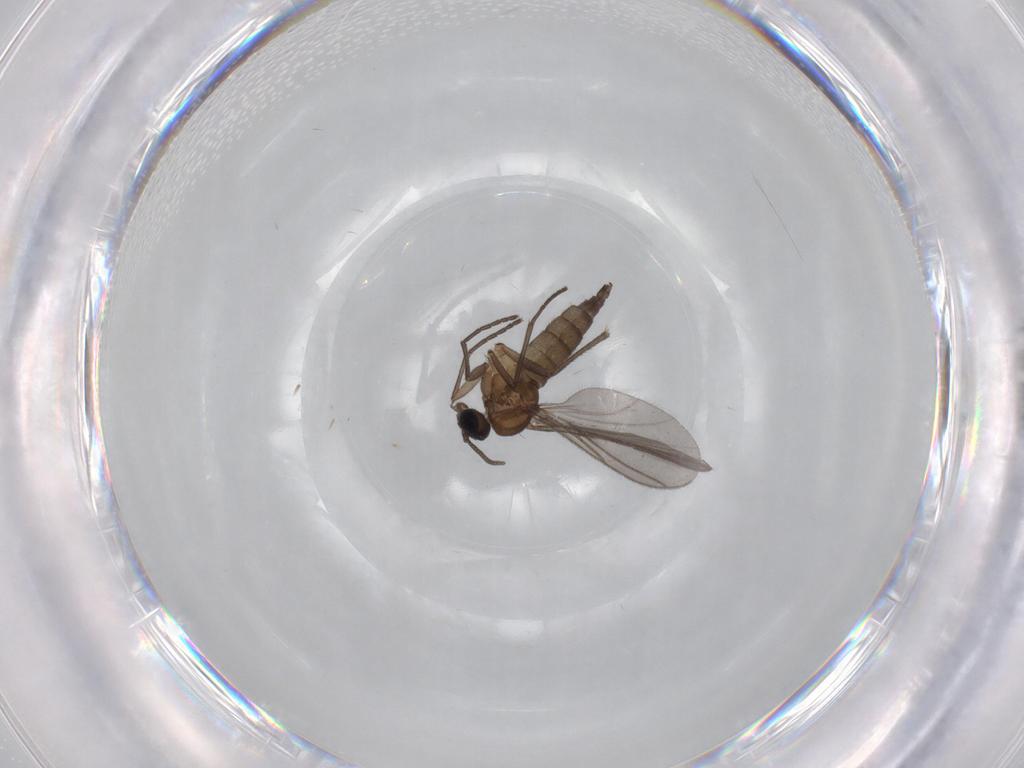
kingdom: Animalia
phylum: Arthropoda
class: Insecta
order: Diptera
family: Sciaridae
